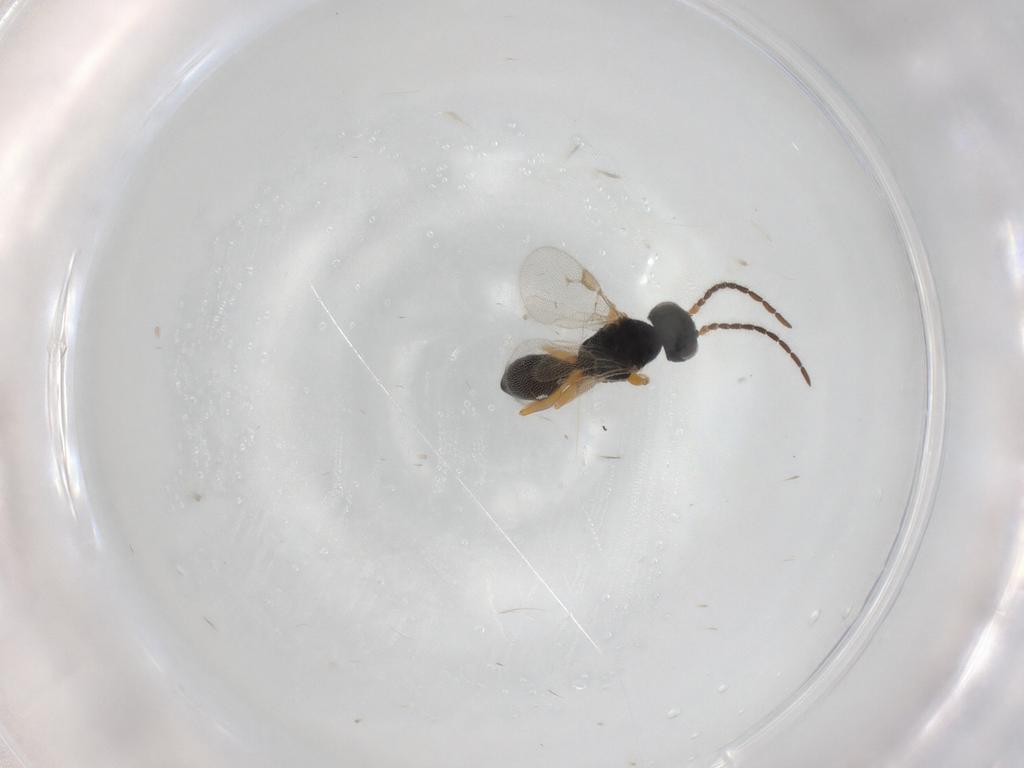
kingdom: Animalia
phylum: Arthropoda
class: Insecta
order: Hymenoptera
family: Dryinidae
